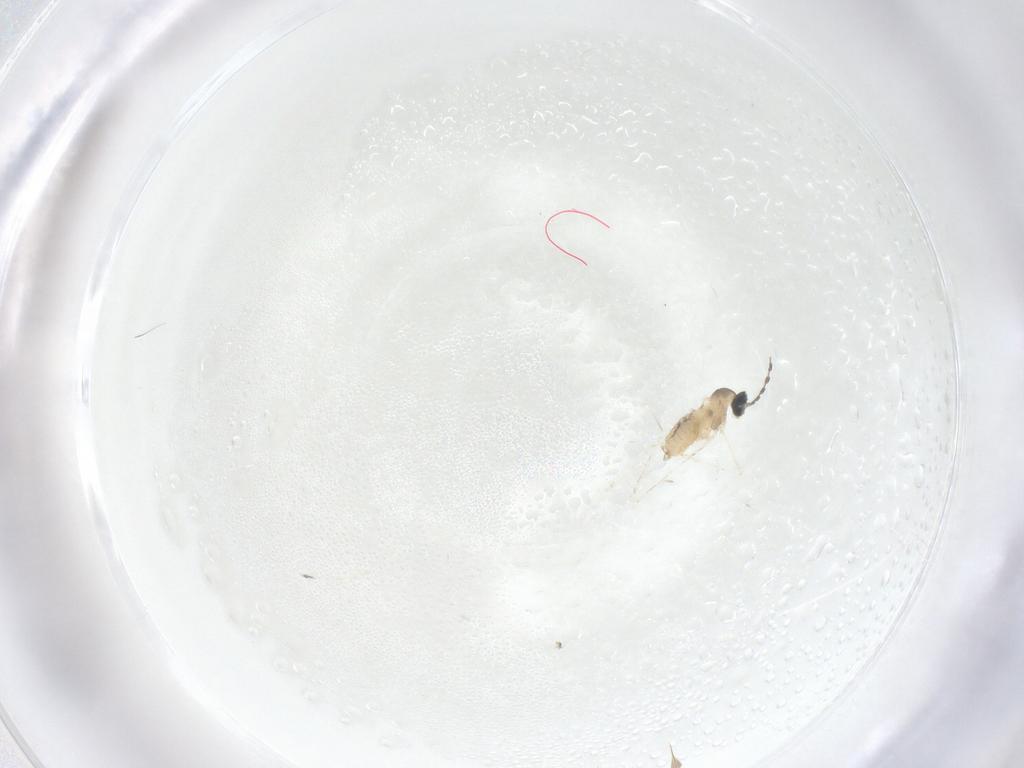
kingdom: Animalia
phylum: Arthropoda
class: Insecta
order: Diptera
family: Cecidomyiidae
